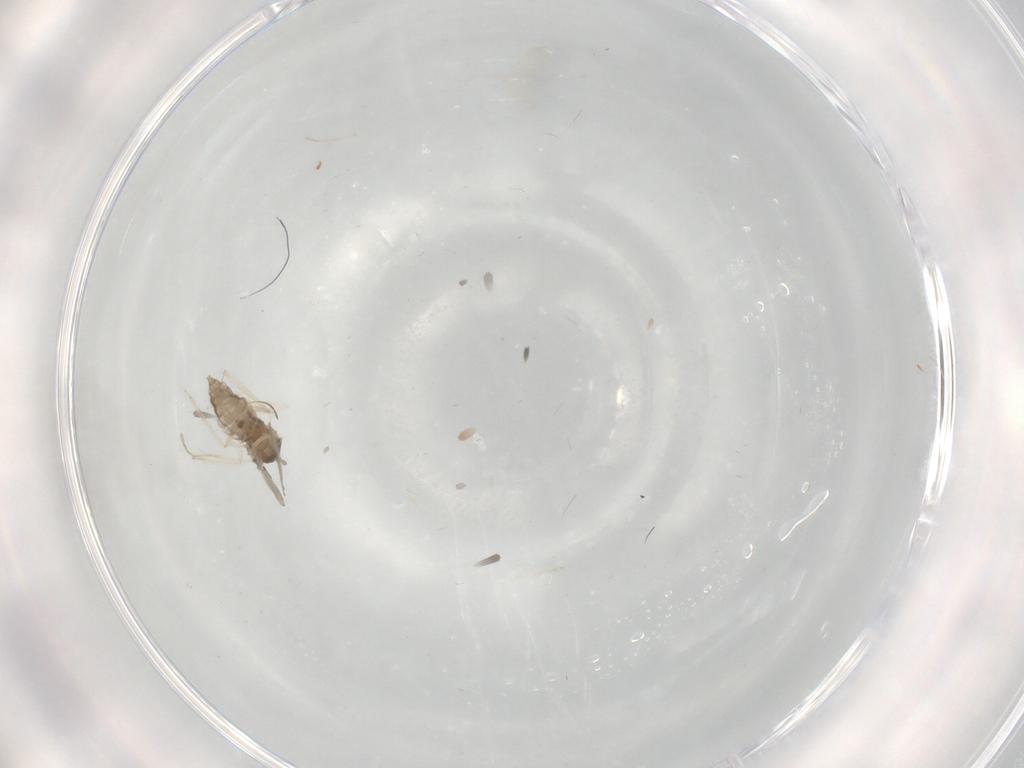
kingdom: Animalia
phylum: Arthropoda
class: Insecta
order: Diptera
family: Cecidomyiidae
